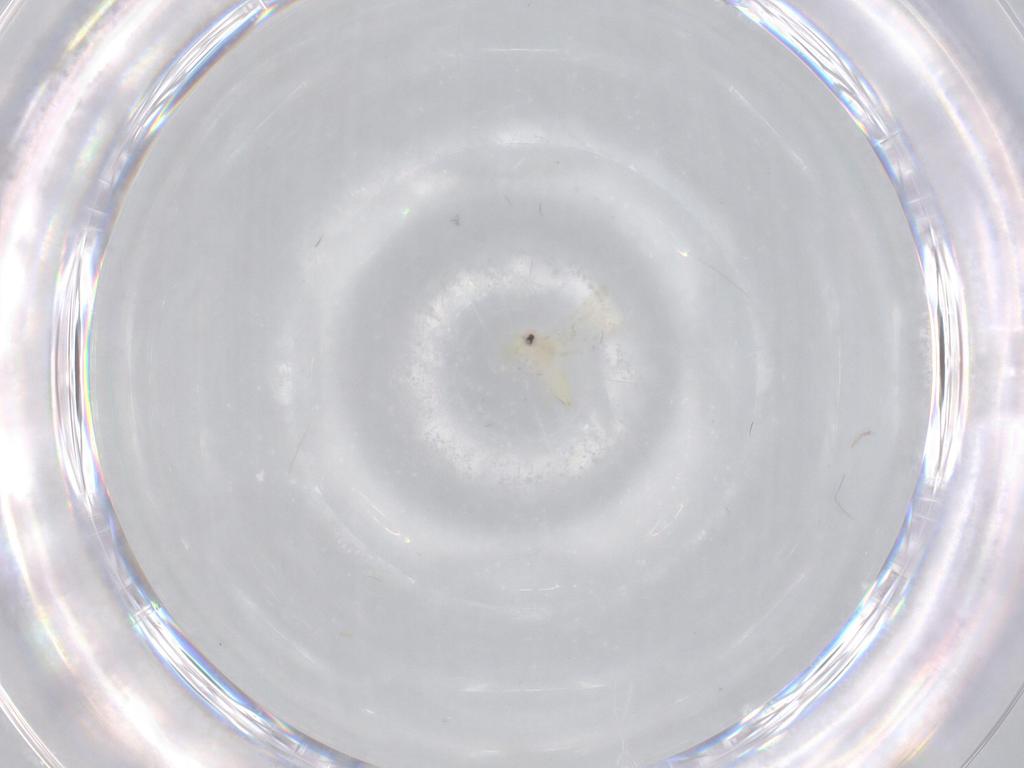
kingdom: Animalia
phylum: Arthropoda
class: Insecta
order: Hemiptera
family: Aleyrodidae
